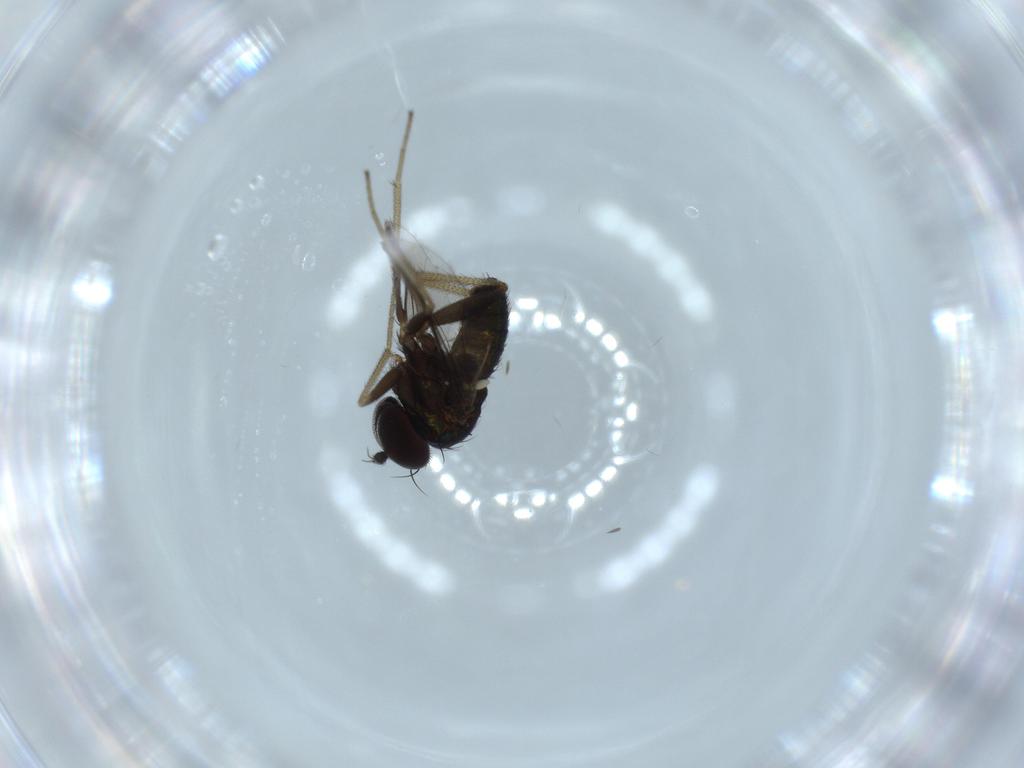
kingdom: Animalia
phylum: Arthropoda
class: Insecta
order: Diptera
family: Dolichopodidae
